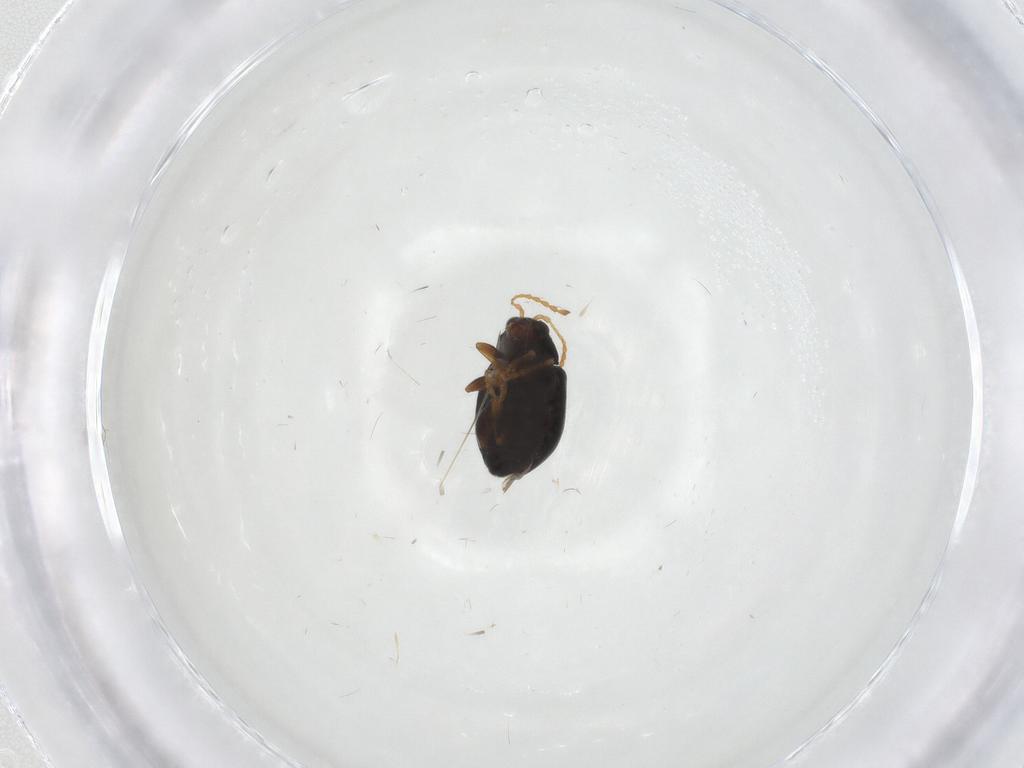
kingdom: Animalia
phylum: Arthropoda
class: Insecta
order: Coleoptera
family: Chrysomelidae
